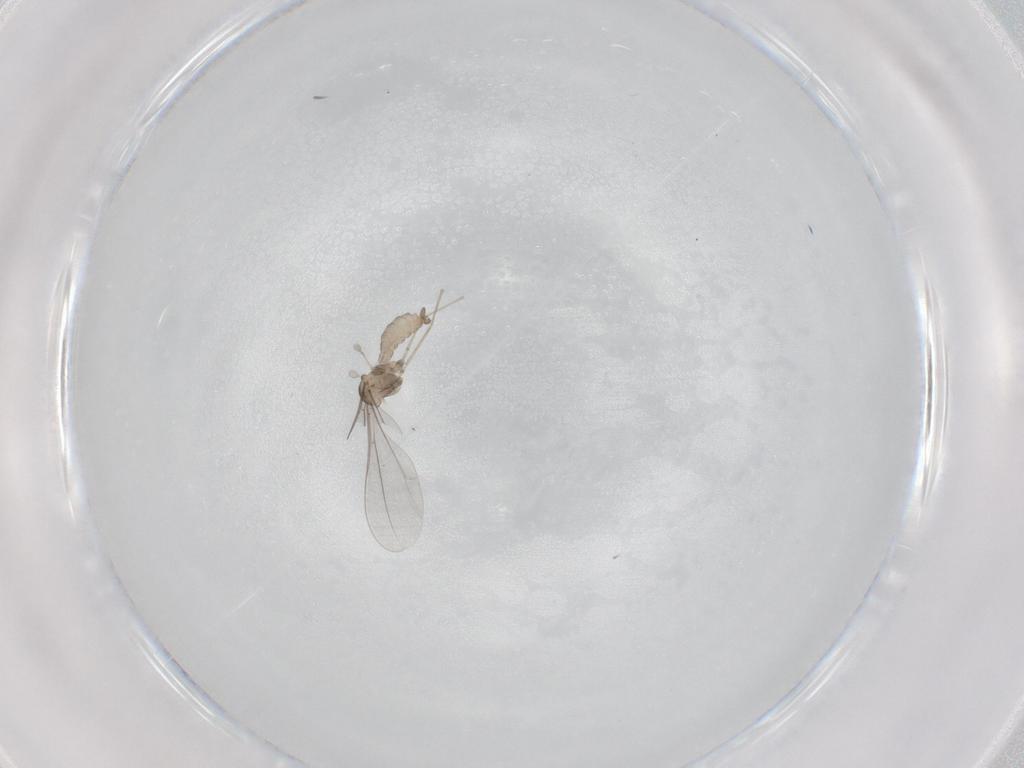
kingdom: Animalia
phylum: Arthropoda
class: Insecta
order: Diptera
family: Cecidomyiidae
